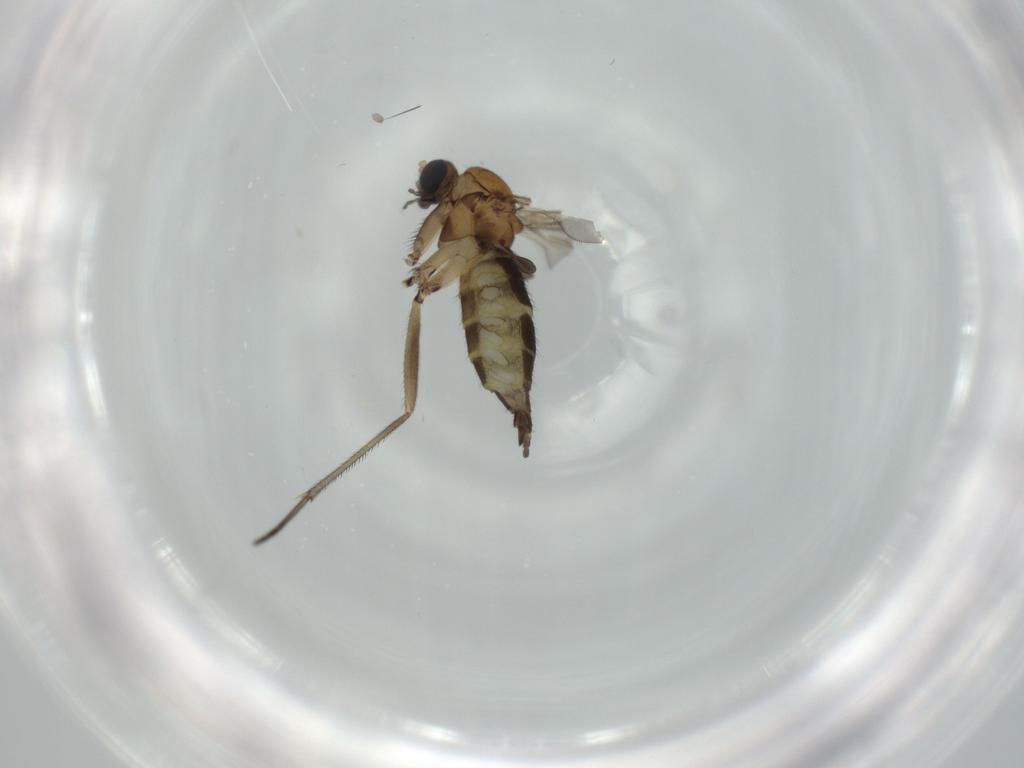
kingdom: Animalia
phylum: Arthropoda
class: Insecta
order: Diptera
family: Sciaridae
